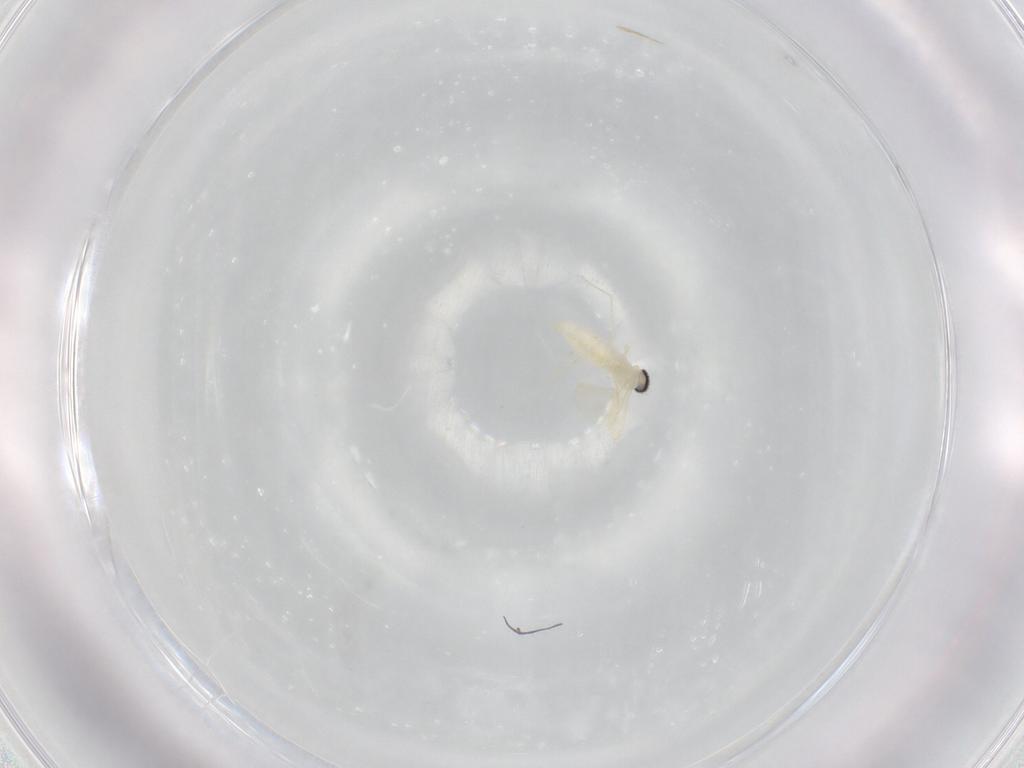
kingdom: Animalia
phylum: Arthropoda
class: Insecta
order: Diptera
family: Cecidomyiidae
